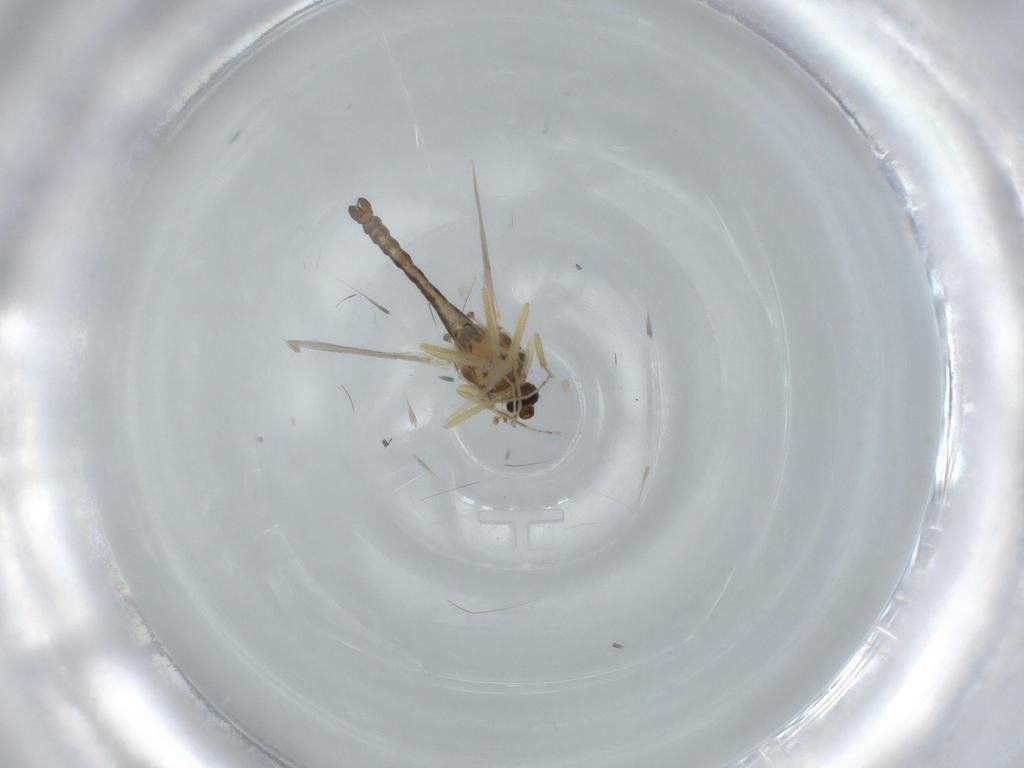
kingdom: Animalia
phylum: Arthropoda
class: Insecta
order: Diptera
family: Ceratopogonidae
